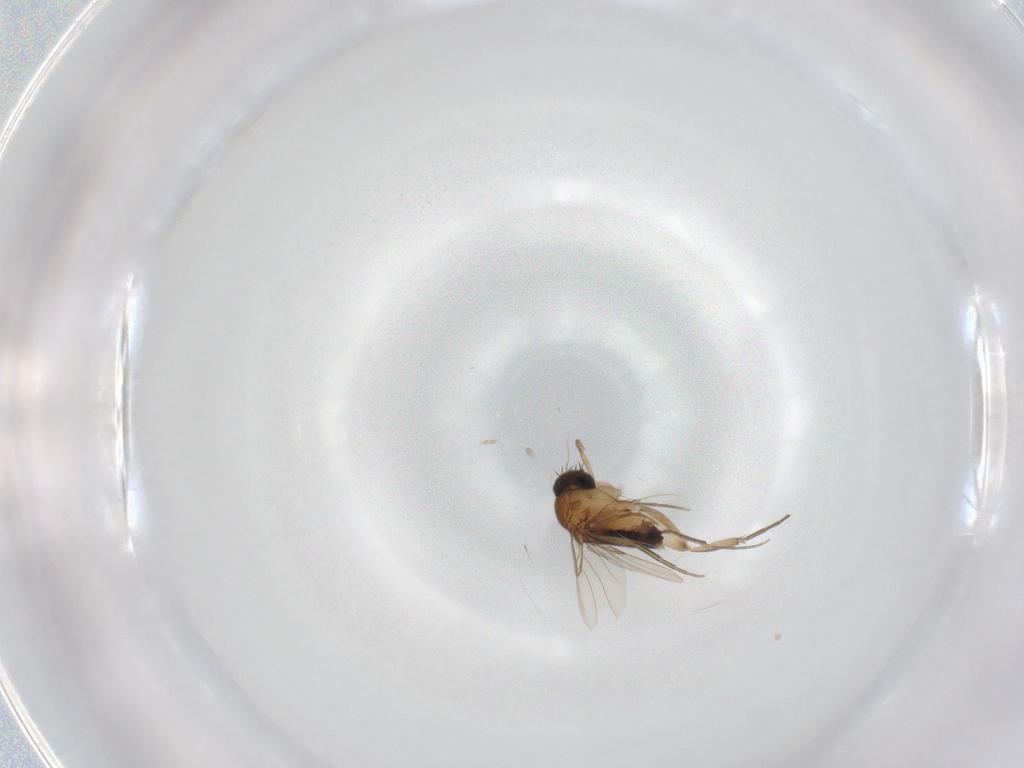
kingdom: Animalia
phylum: Arthropoda
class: Insecta
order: Diptera
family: Phoridae
